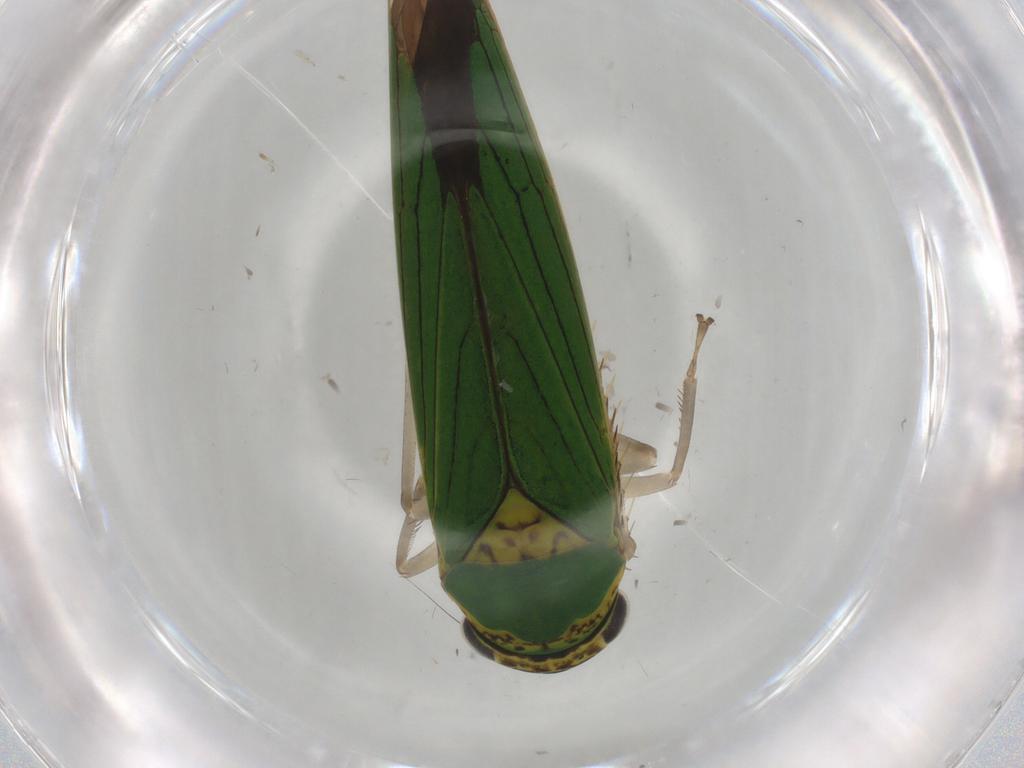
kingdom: Animalia
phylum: Arthropoda
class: Insecta
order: Hemiptera
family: Cicadellidae
